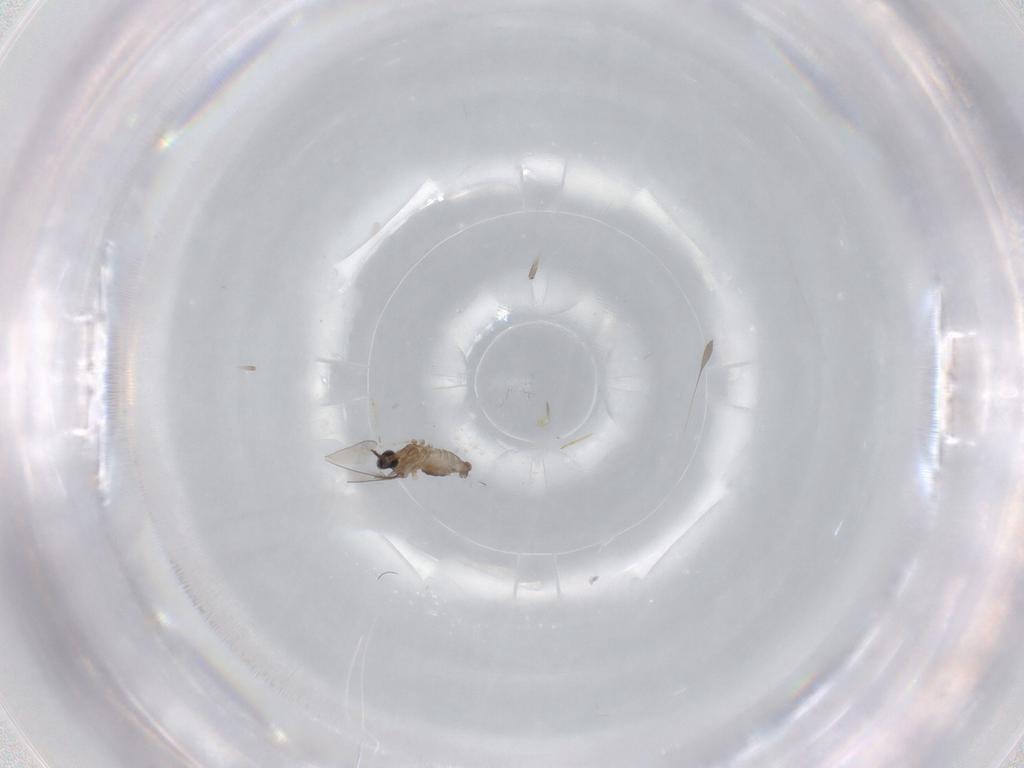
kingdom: Animalia
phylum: Arthropoda
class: Insecta
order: Diptera
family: Cecidomyiidae
